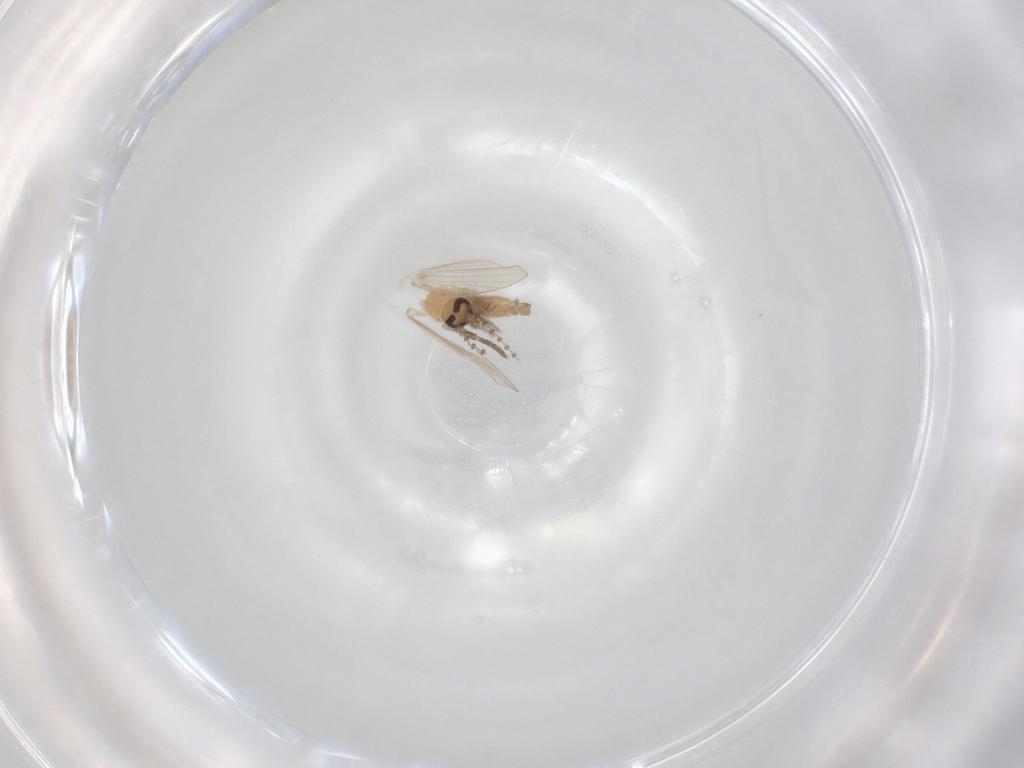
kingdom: Animalia
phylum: Arthropoda
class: Insecta
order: Diptera
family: Psychodidae
